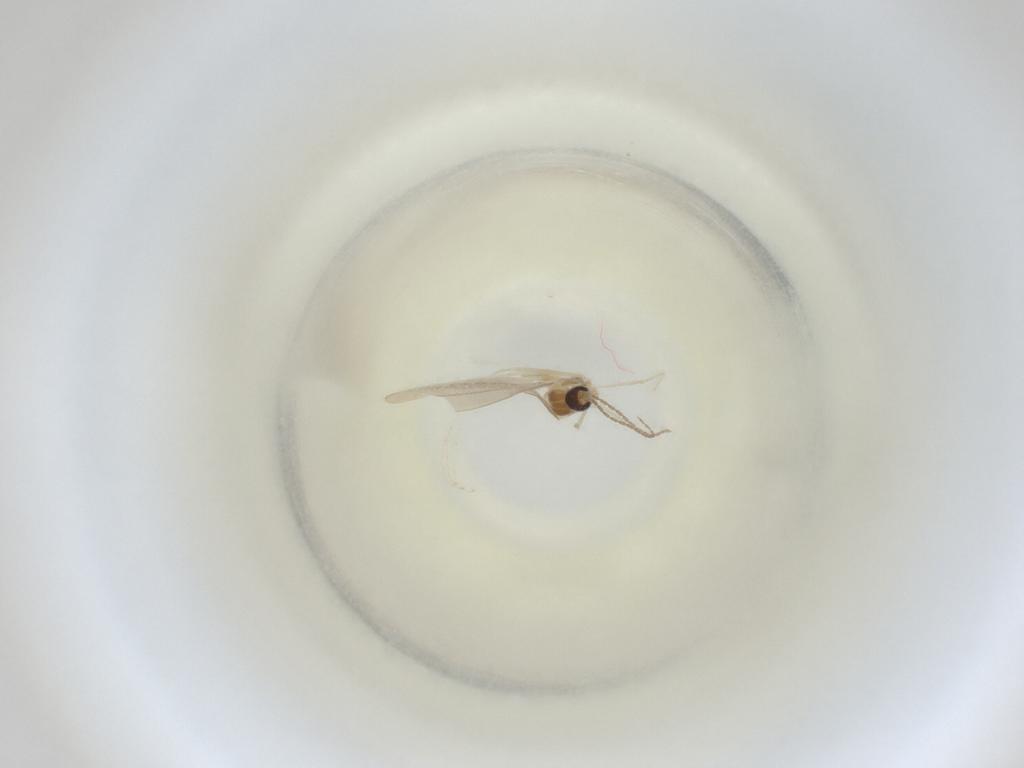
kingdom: Animalia
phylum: Arthropoda
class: Insecta
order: Diptera
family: Cecidomyiidae
